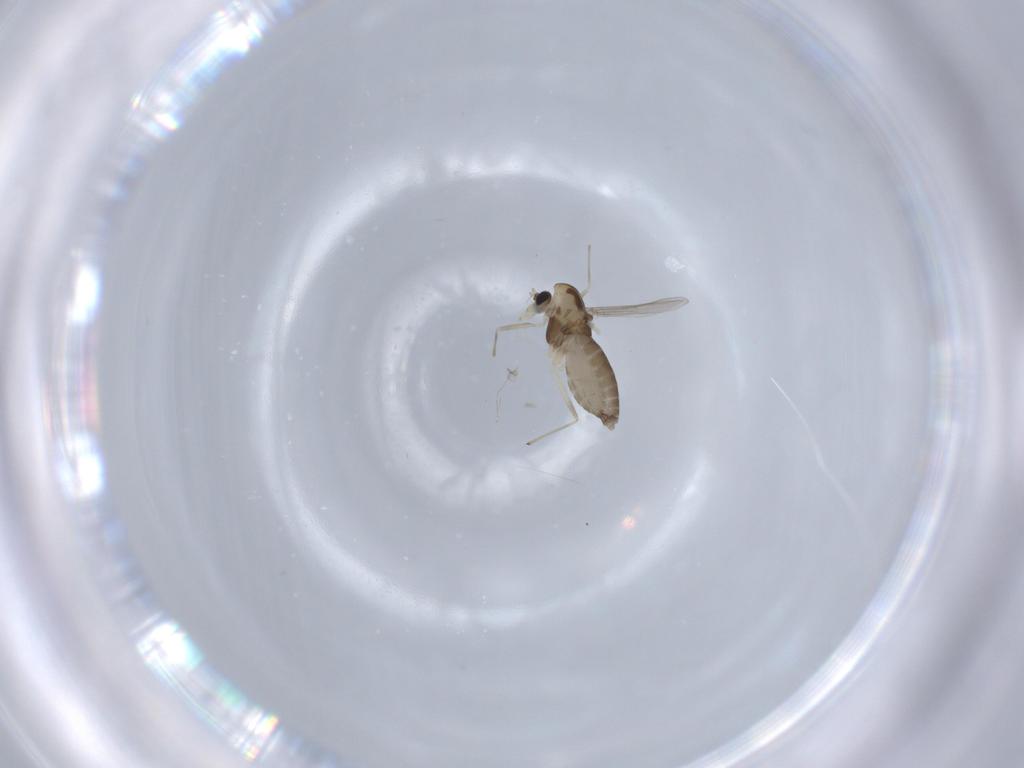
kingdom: Animalia
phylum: Arthropoda
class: Insecta
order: Diptera
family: Chironomidae
